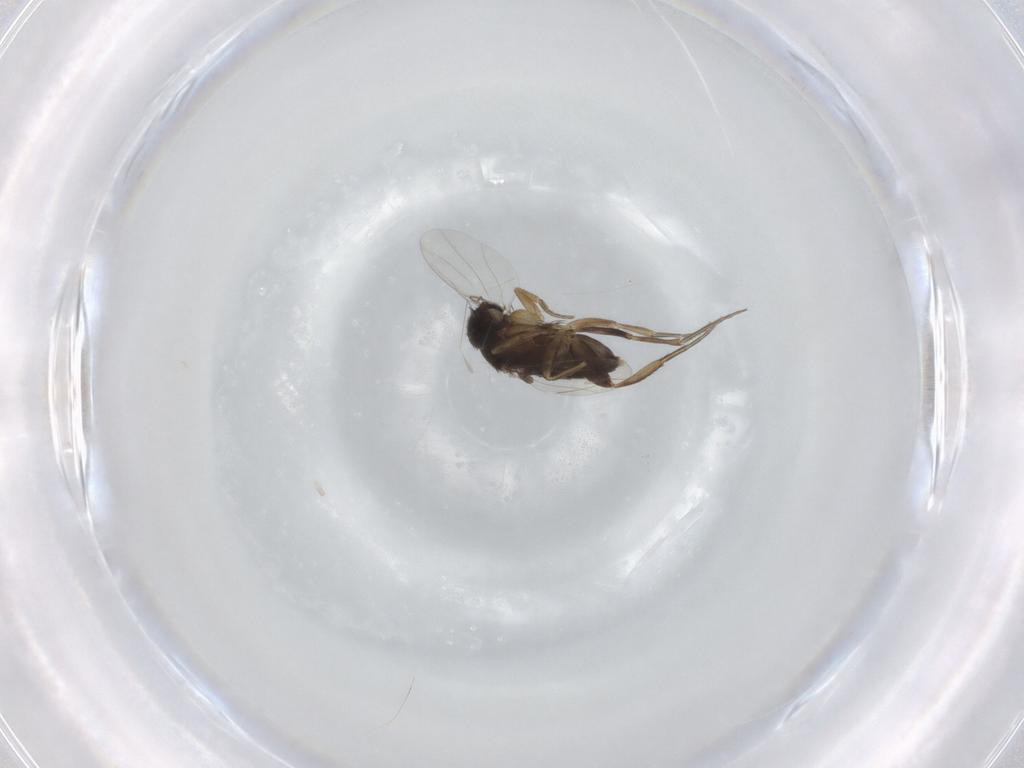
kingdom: Animalia
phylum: Arthropoda
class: Insecta
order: Diptera
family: Phoridae
